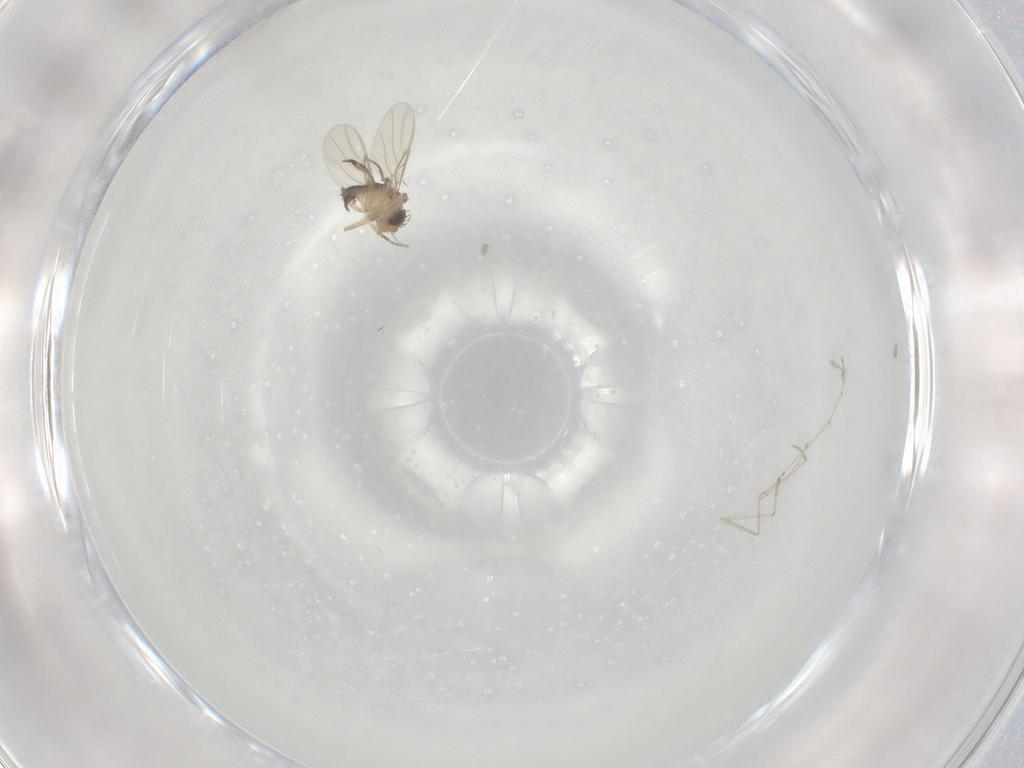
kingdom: Animalia
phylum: Arthropoda
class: Insecta
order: Diptera
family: Phoridae
